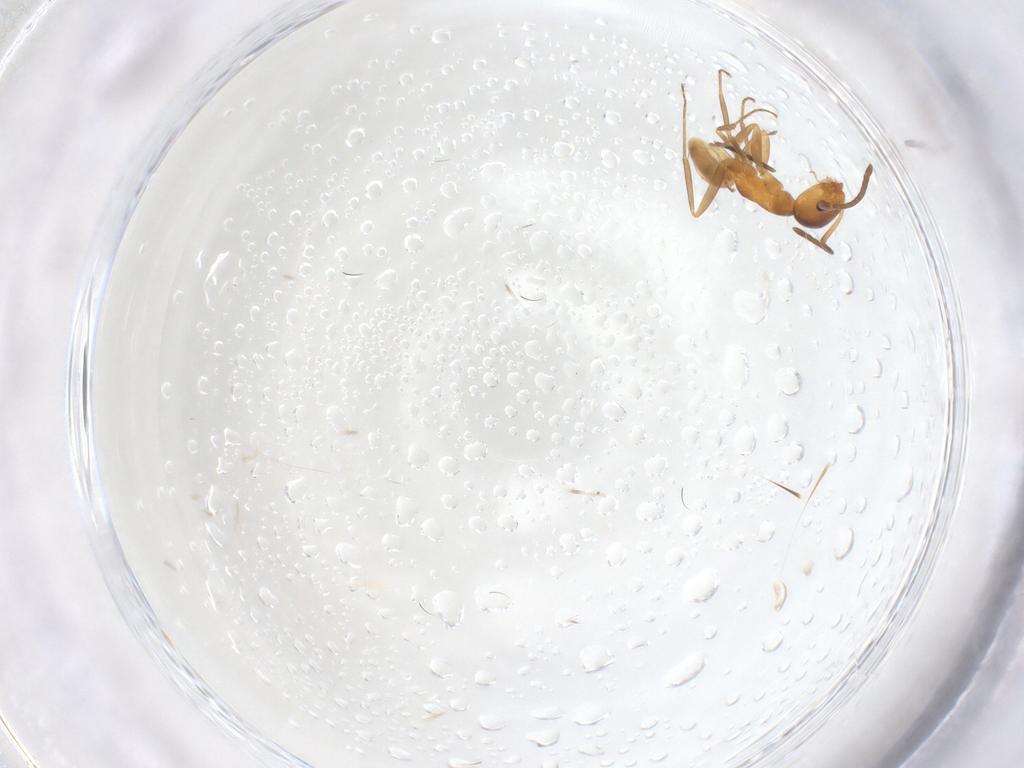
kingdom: Animalia
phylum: Arthropoda
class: Insecta
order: Hymenoptera
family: Formicidae
